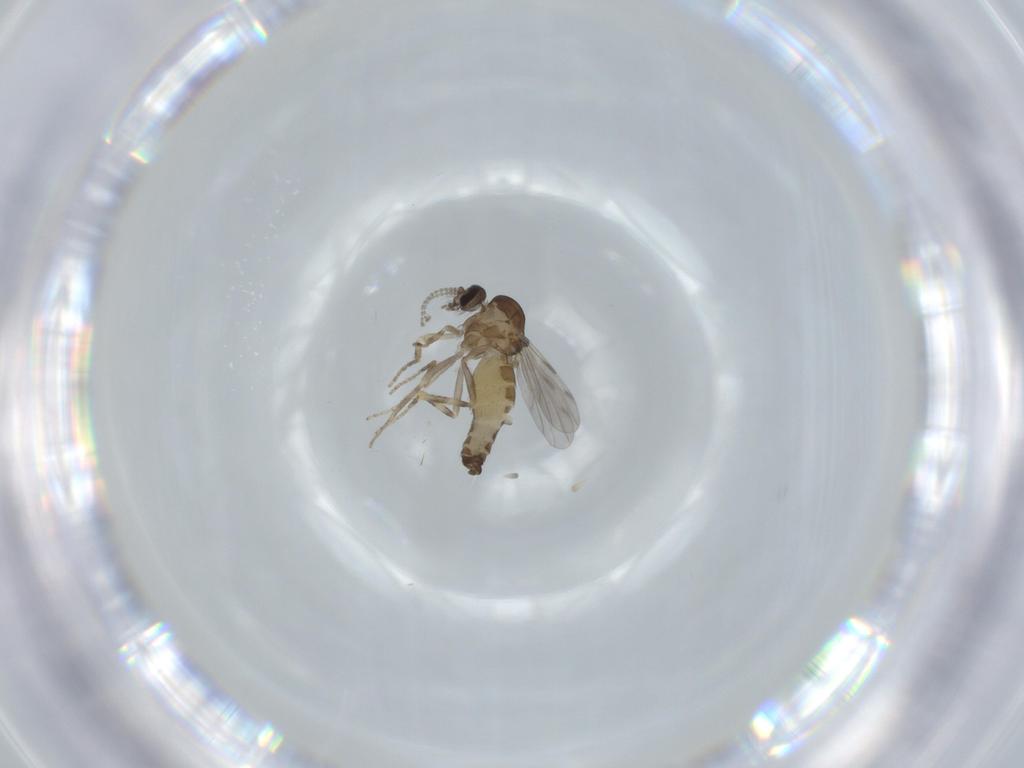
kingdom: Animalia
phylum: Arthropoda
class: Insecta
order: Diptera
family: Ceratopogonidae
